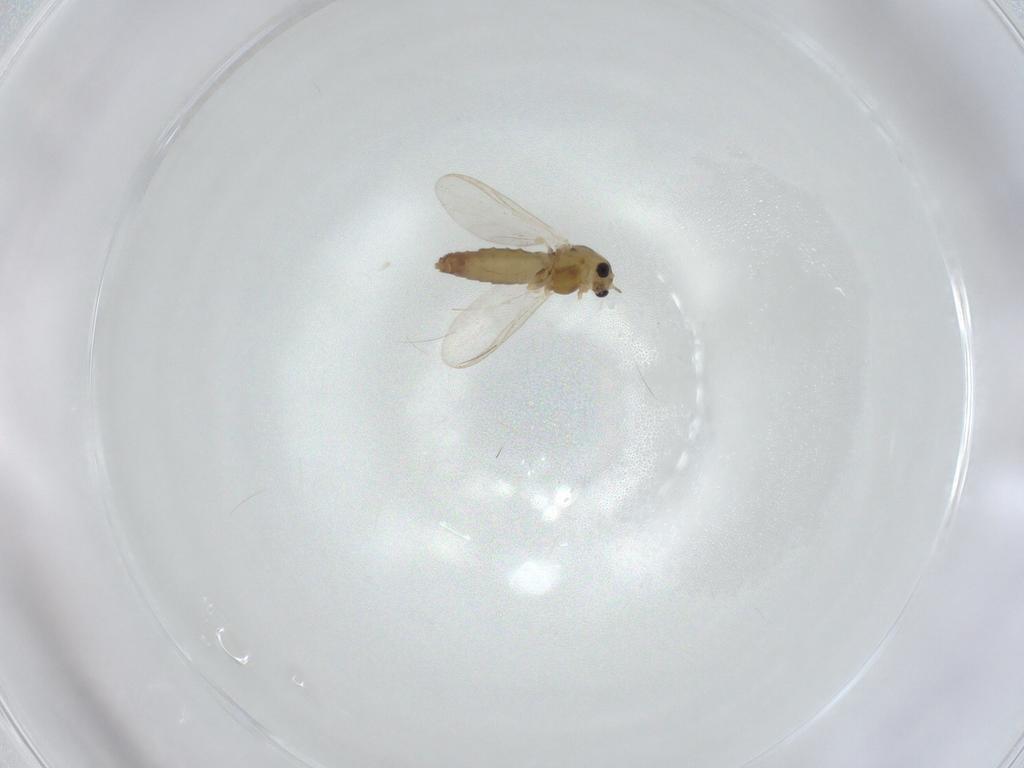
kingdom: Animalia
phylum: Arthropoda
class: Insecta
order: Diptera
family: Chironomidae
